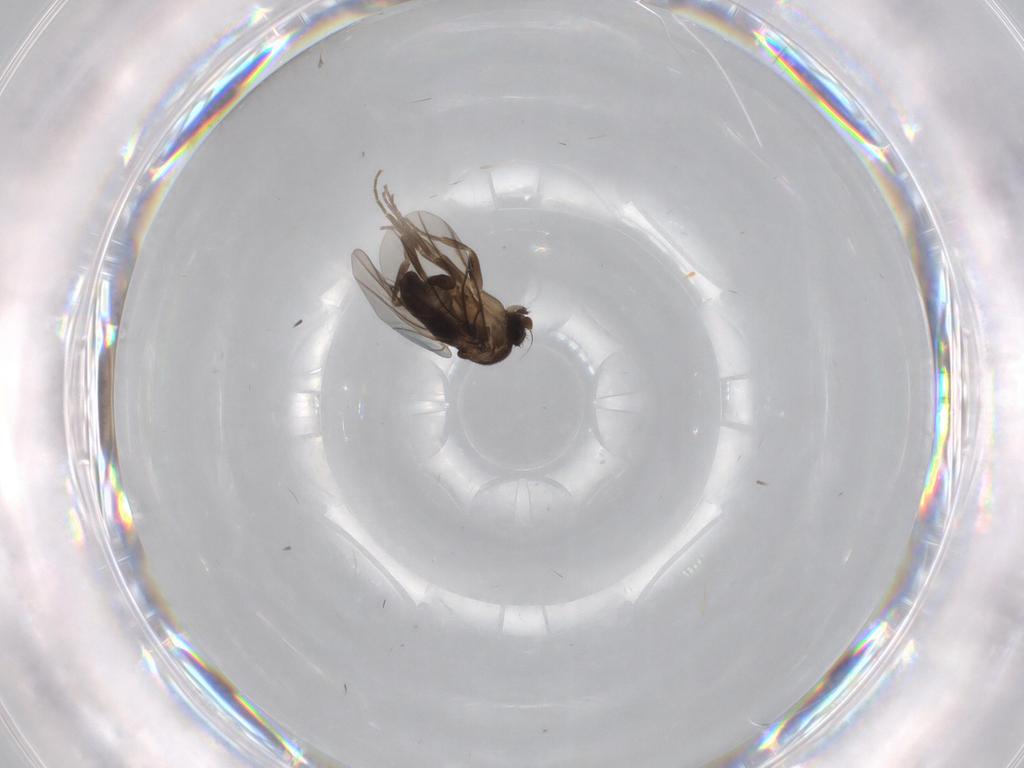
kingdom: Animalia
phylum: Arthropoda
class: Insecta
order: Diptera
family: Phoridae
